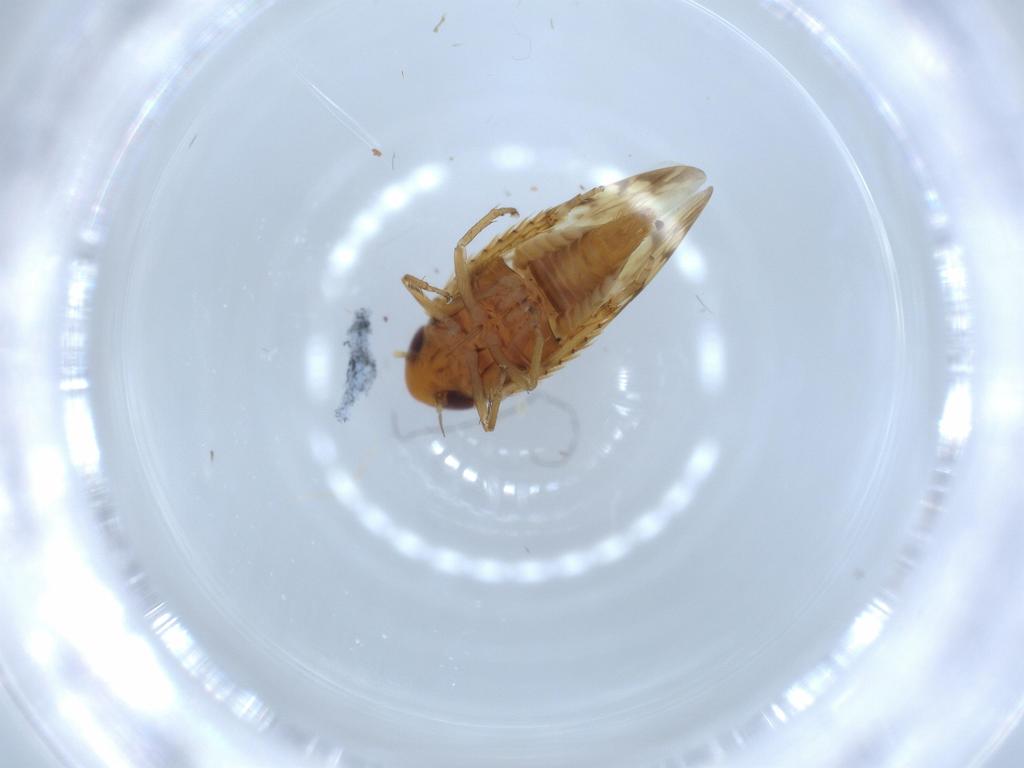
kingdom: Animalia
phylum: Arthropoda
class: Insecta
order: Hemiptera
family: Cicadellidae
